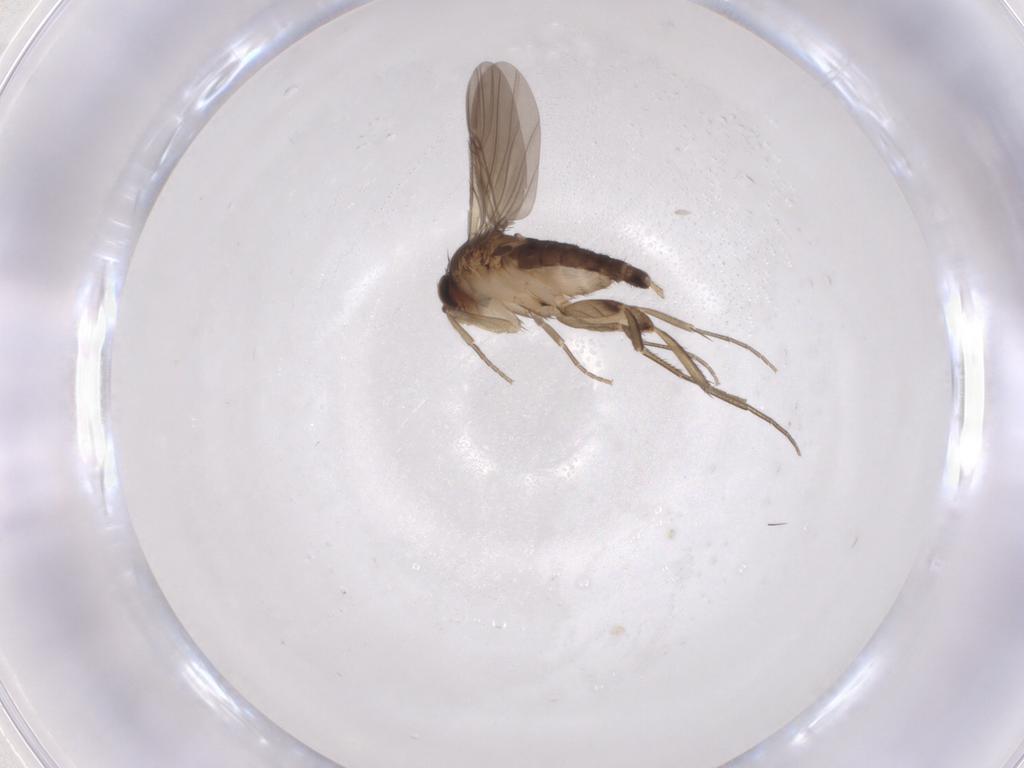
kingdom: Animalia
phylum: Arthropoda
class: Insecta
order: Diptera
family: Phoridae
